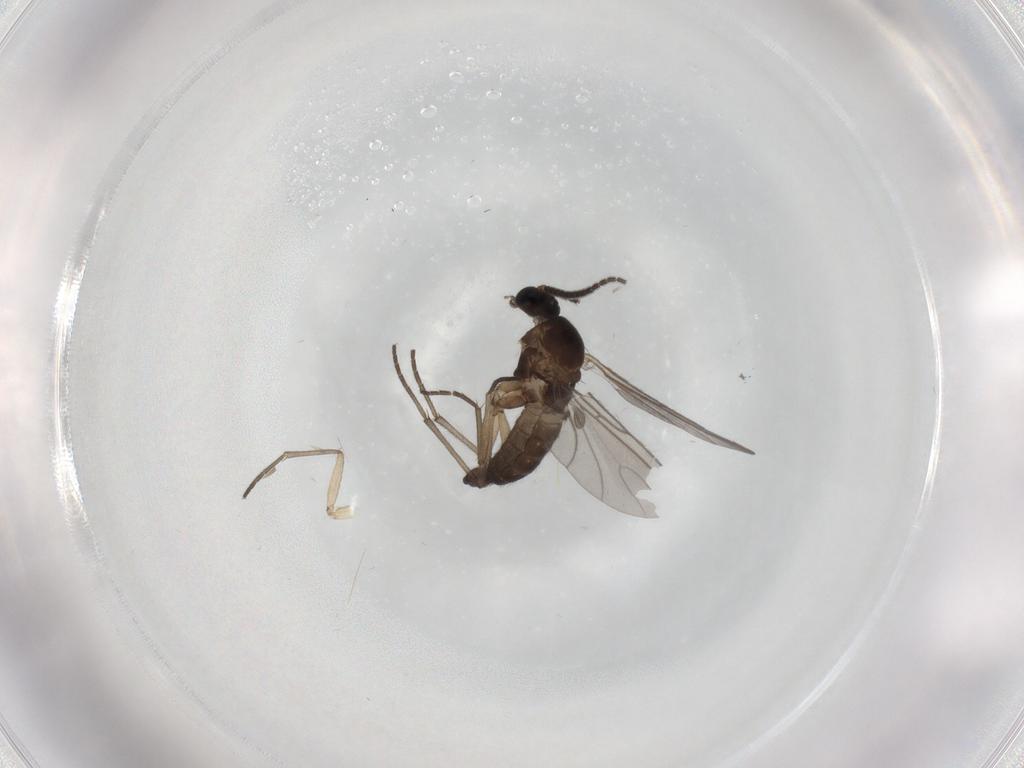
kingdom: Animalia
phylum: Arthropoda
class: Insecta
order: Diptera
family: Sciaridae
